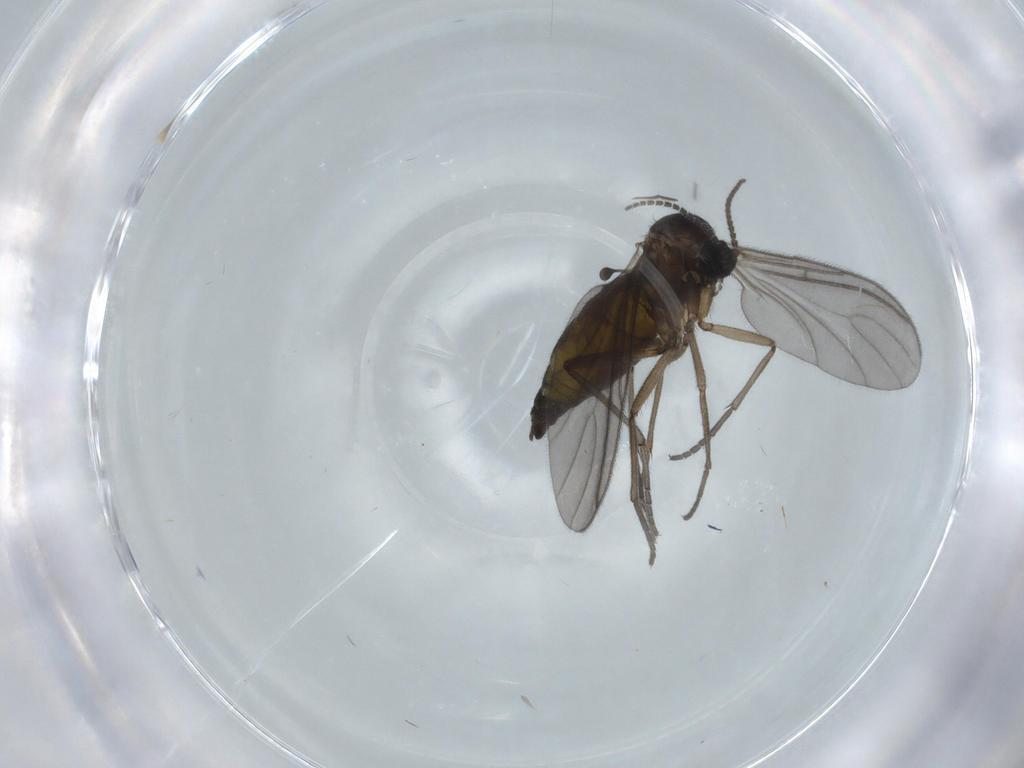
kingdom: Animalia
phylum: Arthropoda
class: Insecta
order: Diptera
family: Sciaridae
